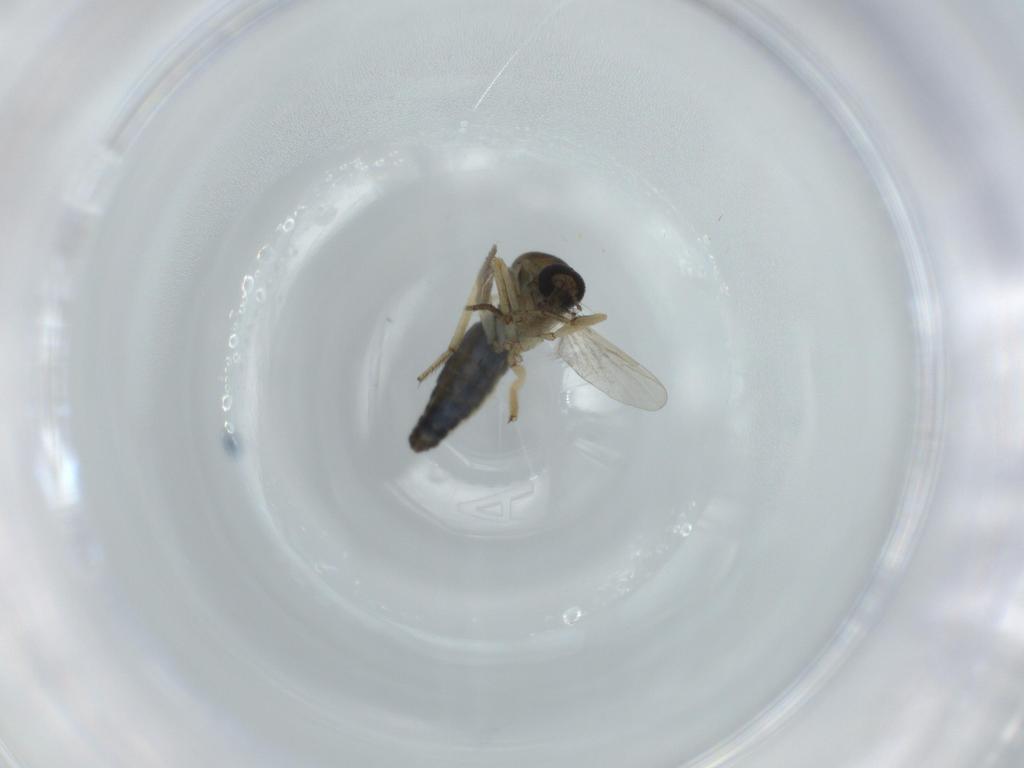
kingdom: Animalia
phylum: Arthropoda
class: Insecta
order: Diptera
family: Ceratopogonidae
